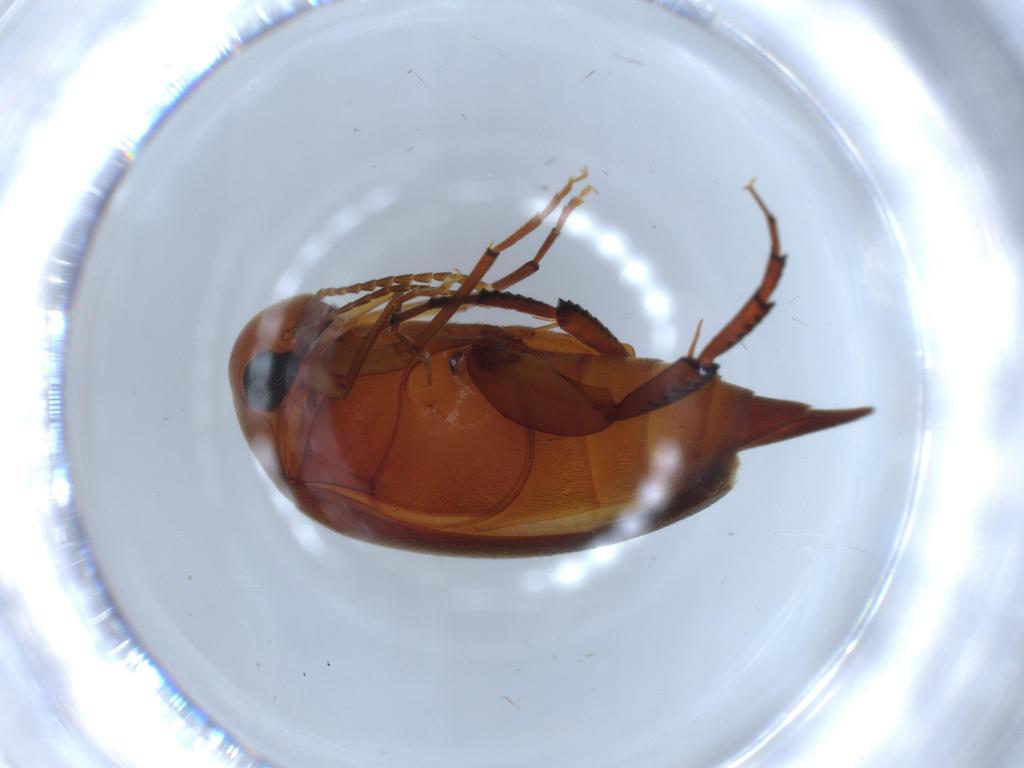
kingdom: Animalia
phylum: Arthropoda
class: Insecta
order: Coleoptera
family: Mordellidae
